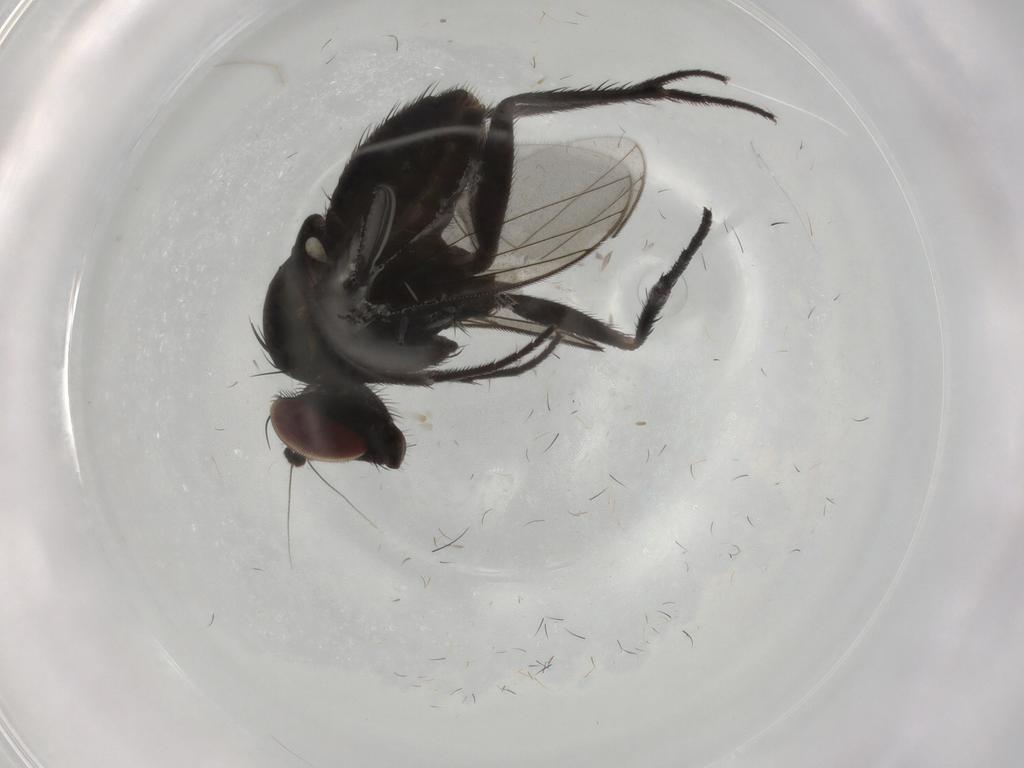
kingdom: Animalia
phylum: Arthropoda
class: Insecta
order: Diptera
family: Dolichopodidae
